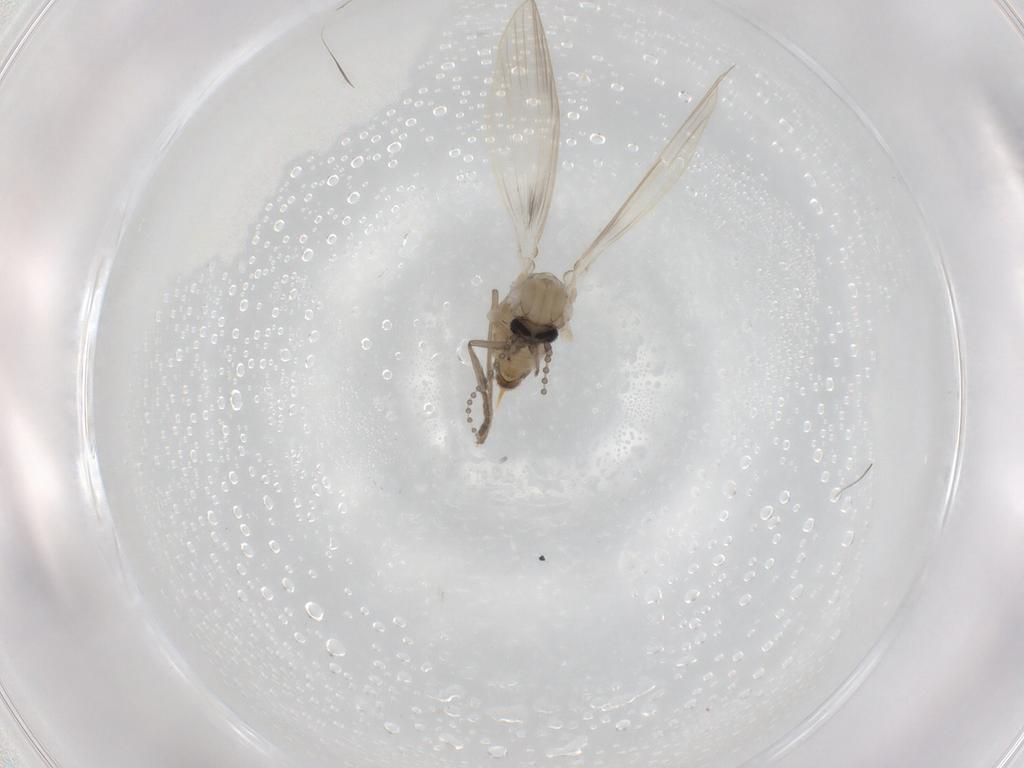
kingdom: Animalia
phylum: Arthropoda
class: Insecta
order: Diptera
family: Psychodidae
